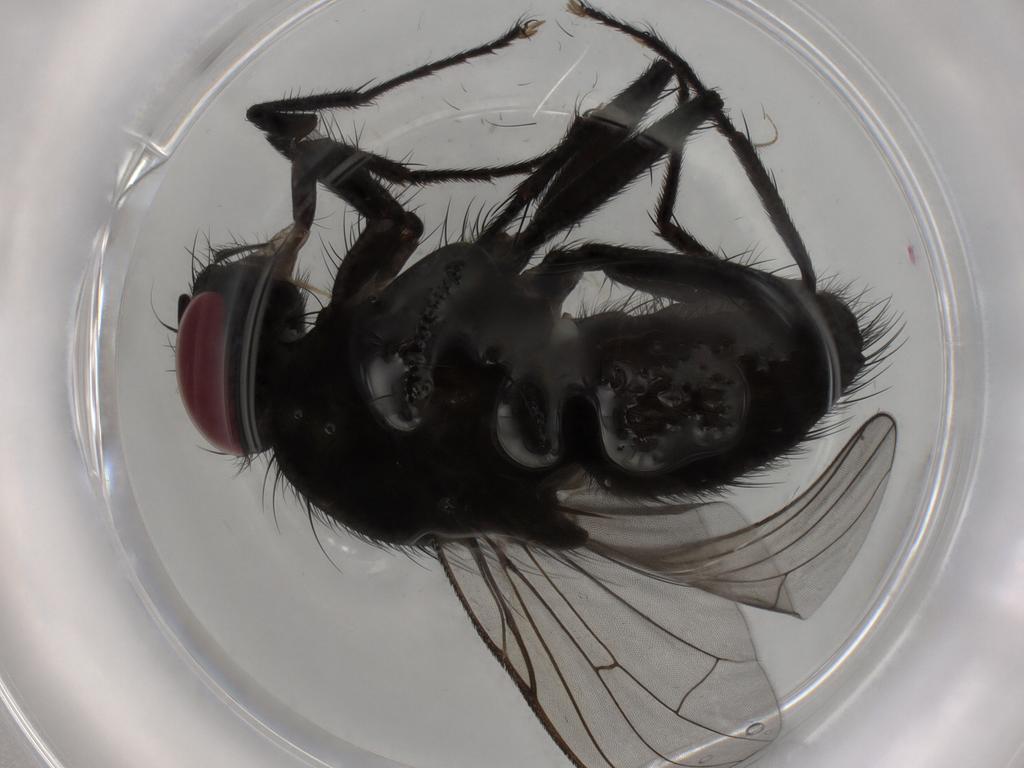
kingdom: Animalia
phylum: Arthropoda
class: Insecta
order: Diptera
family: Muscidae
